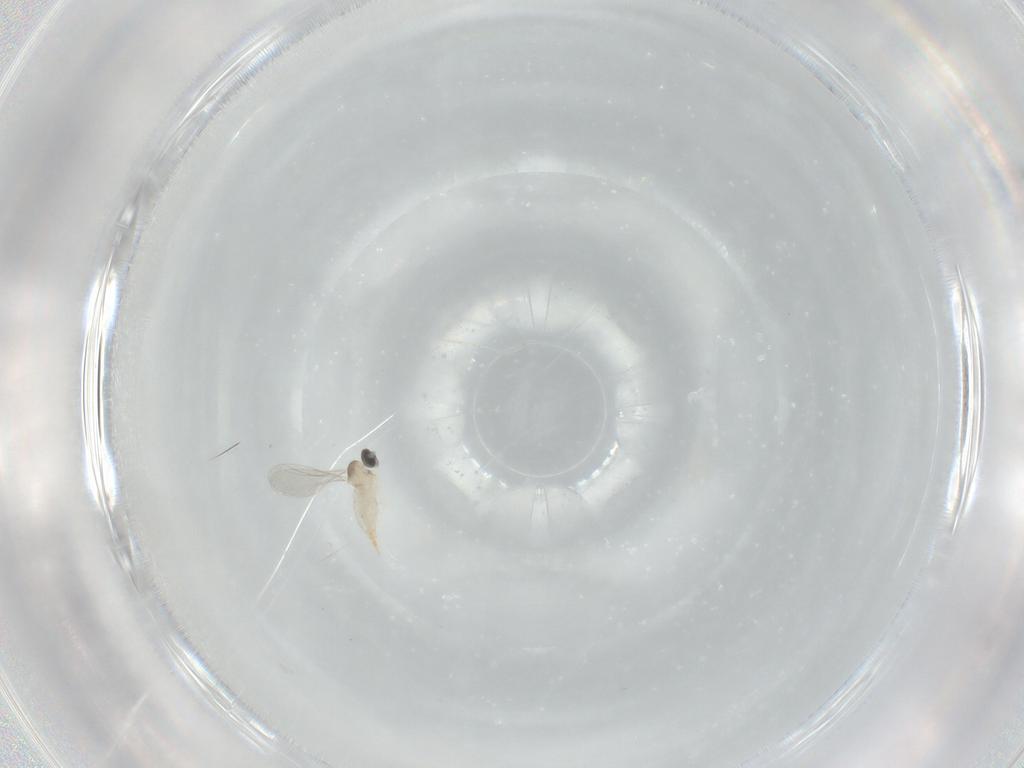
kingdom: Animalia
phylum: Arthropoda
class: Insecta
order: Diptera
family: Cecidomyiidae
